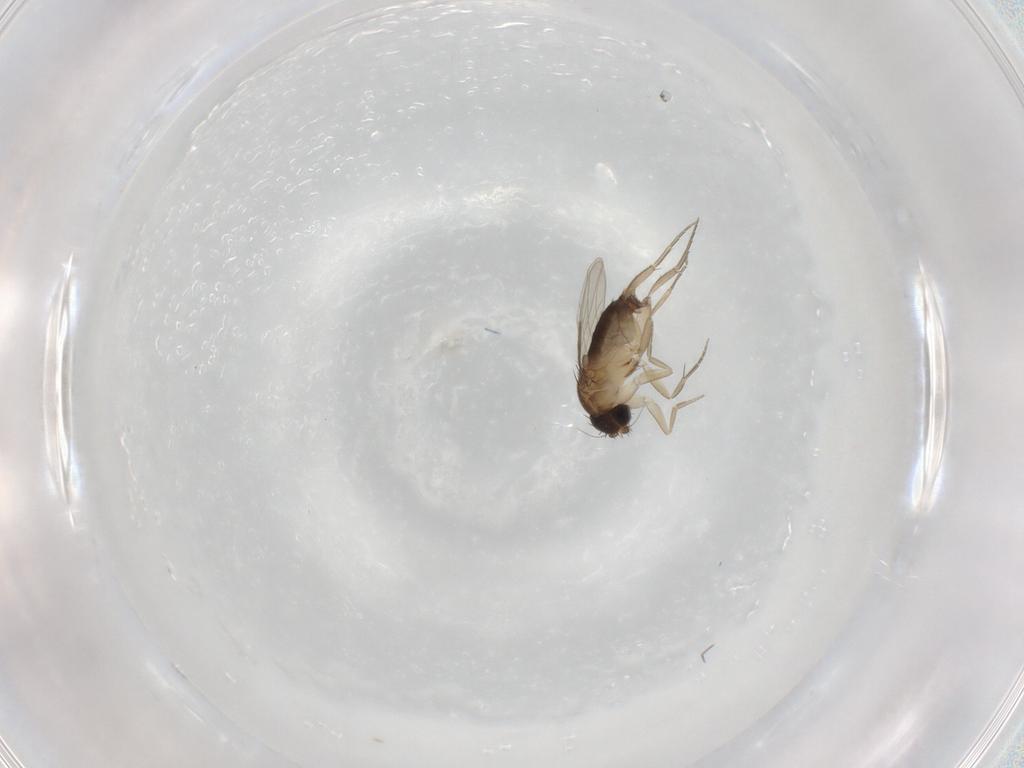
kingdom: Animalia
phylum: Arthropoda
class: Insecta
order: Diptera
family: Phoridae
